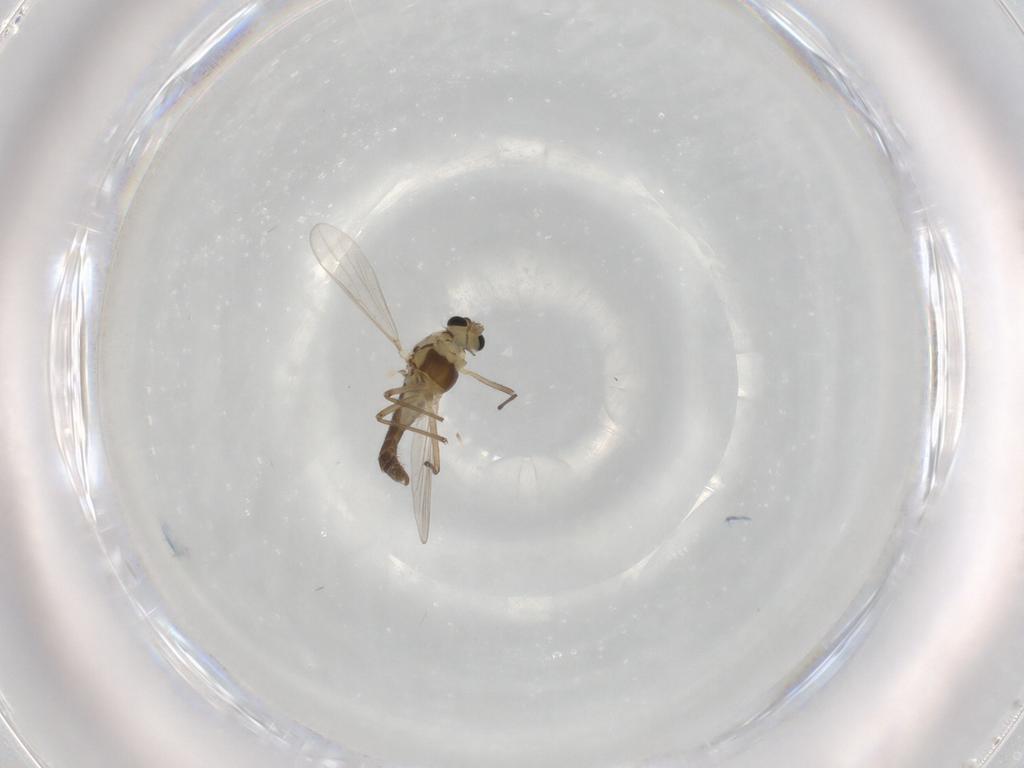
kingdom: Animalia
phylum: Arthropoda
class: Insecta
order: Diptera
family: Chironomidae
